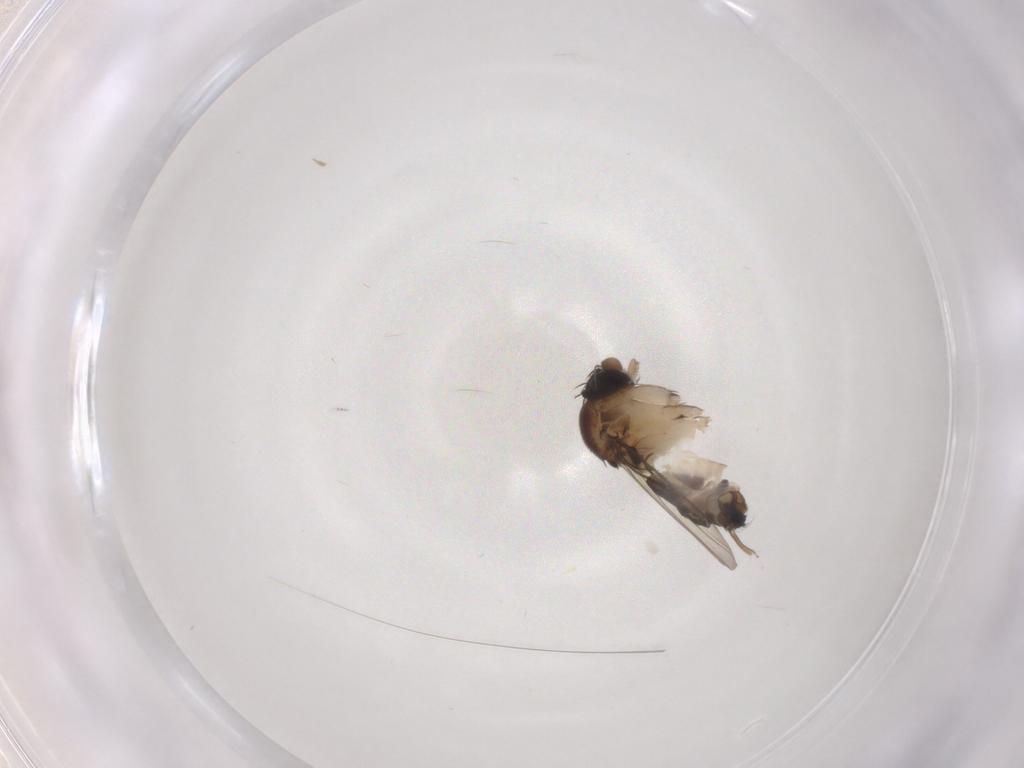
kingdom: Animalia
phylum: Arthropoda
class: Insecta
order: Diptera
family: Phoridae
